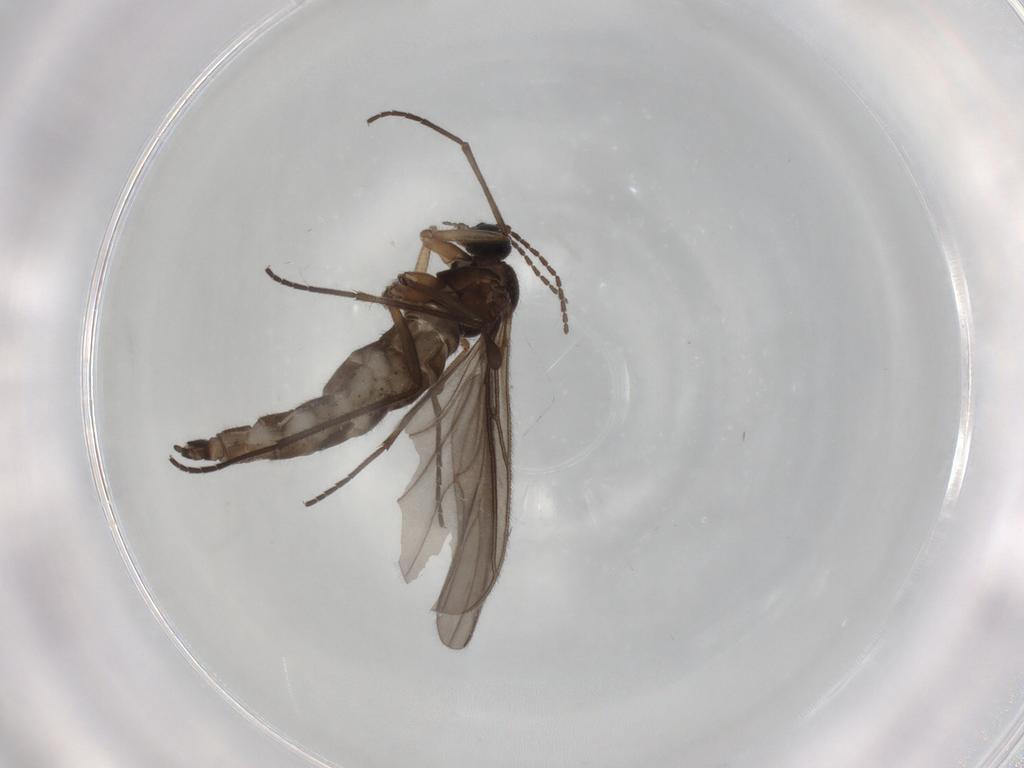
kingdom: Animalia
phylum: Arthropoda
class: Insecta
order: Diptera
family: Sciaridae
